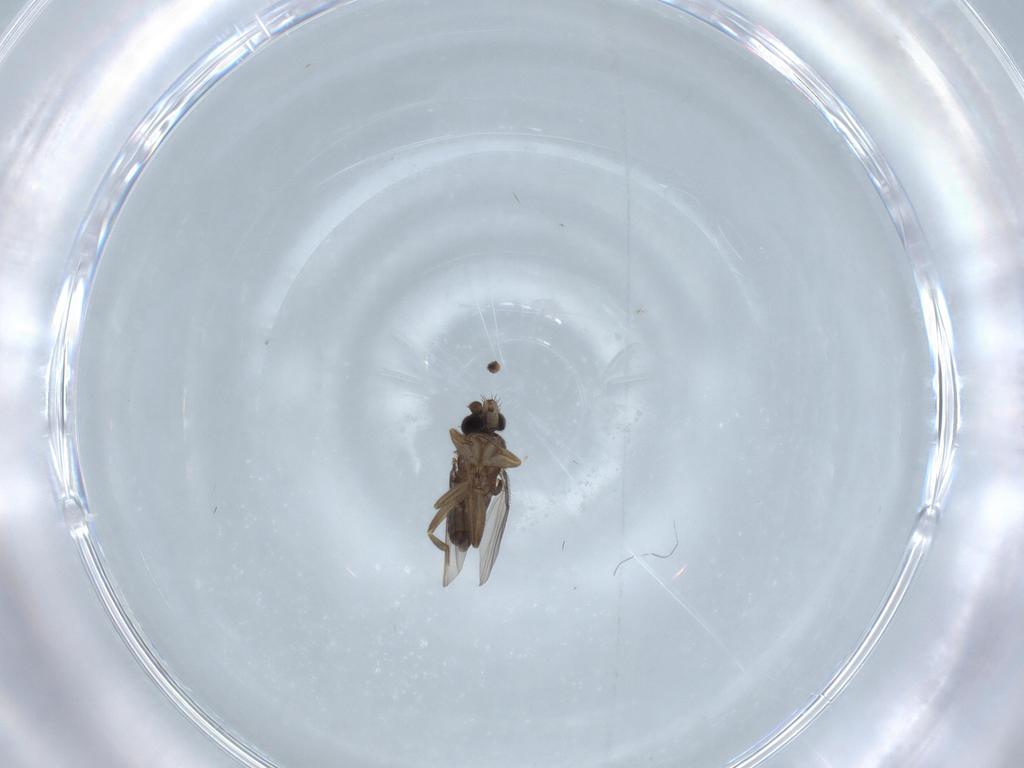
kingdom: Animalia
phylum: Arthropoda
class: Insecta
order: Diptera
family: Phoridae
